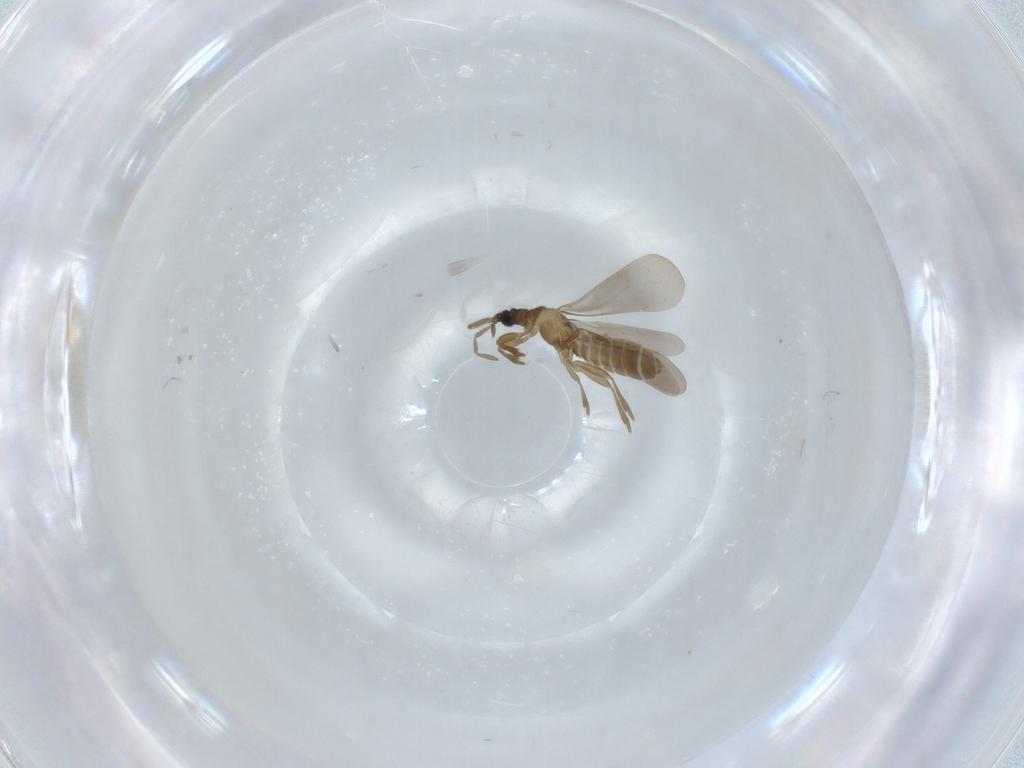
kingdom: Animalia
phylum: Arthropoda
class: Insecta
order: Hemiptera
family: Enicocephalidae
